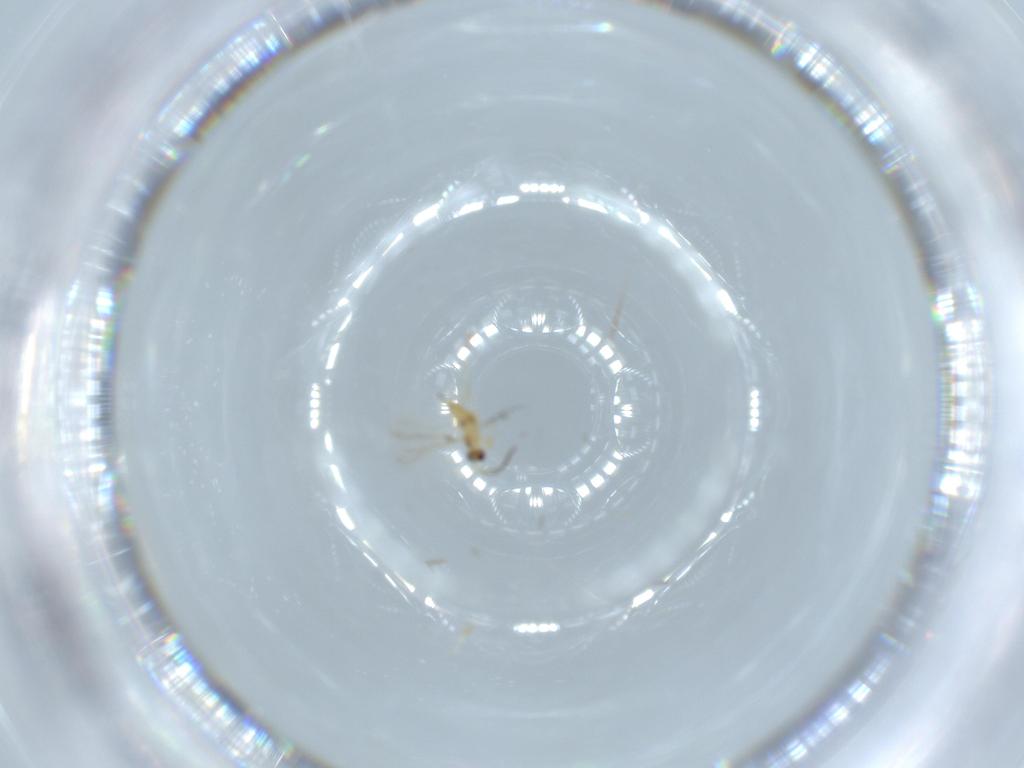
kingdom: Animalia
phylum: Arthropoda
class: Insecta
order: Hymenoptera
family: Mymaridae
